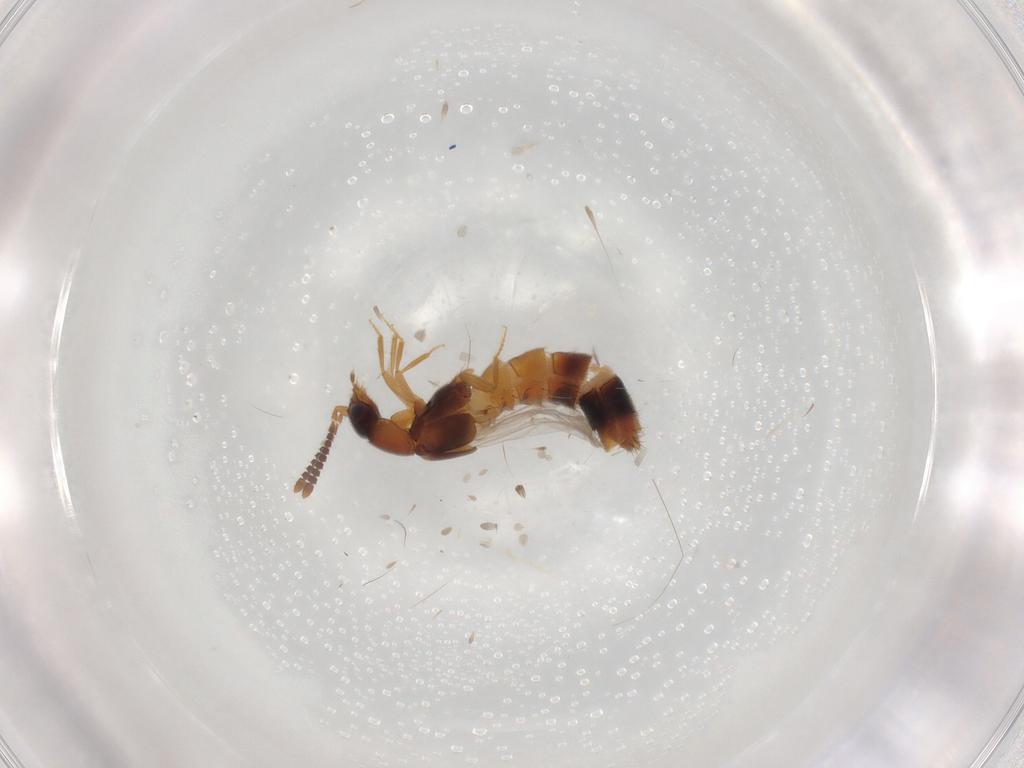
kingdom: Animalia
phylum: Arthropoda
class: Insecta
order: Coleoptera
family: Staphylinidae
